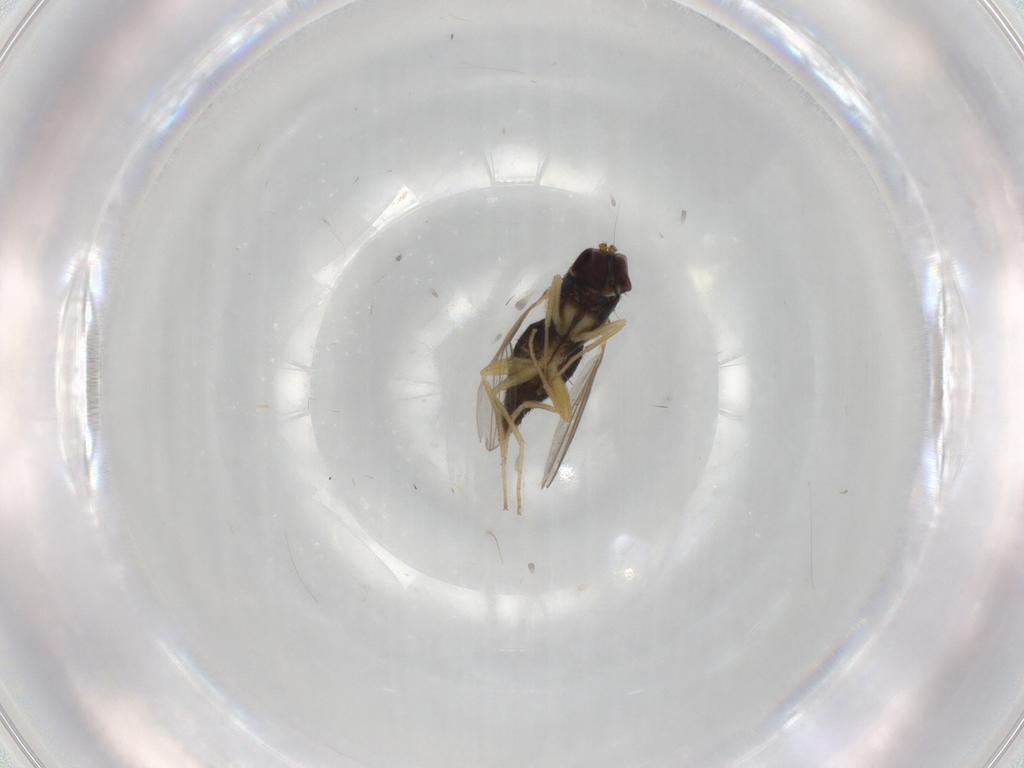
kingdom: Animalia
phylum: Arthropoda
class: Insecta
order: Diptera
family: Dolichopodidae
